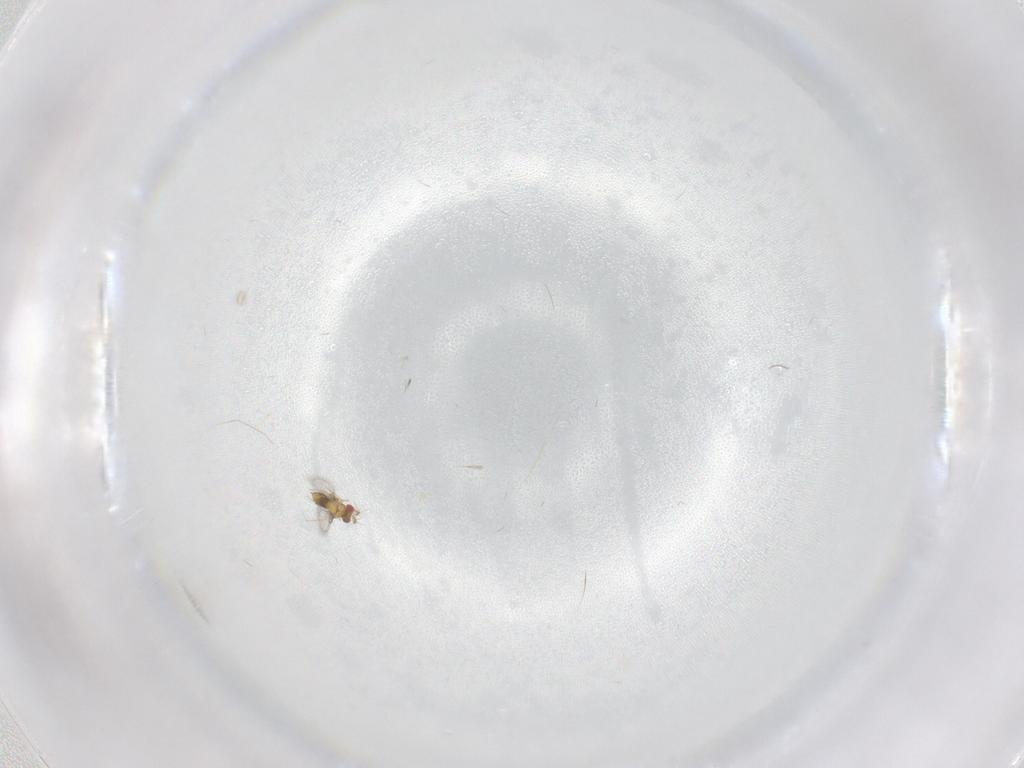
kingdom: Animalia
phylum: Arthropoda
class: Insecta
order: Hymenoptera
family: Trichogrammatidae
